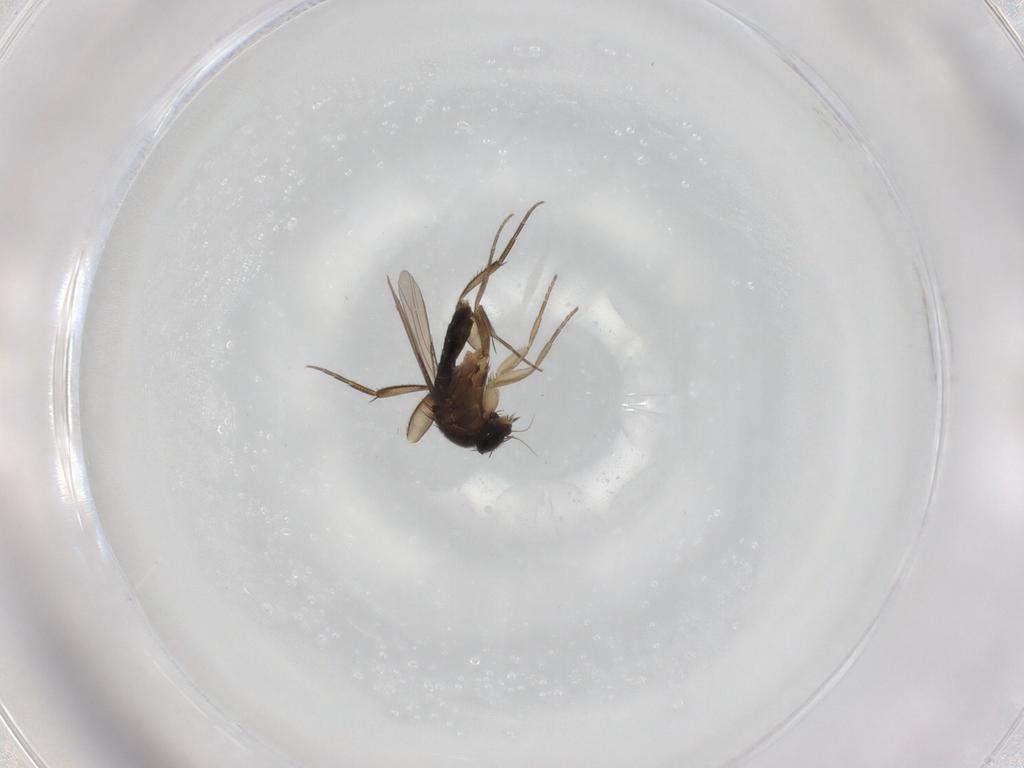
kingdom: Animalia
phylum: Arthropoda
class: Insecta
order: Diptera
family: Phoridae
